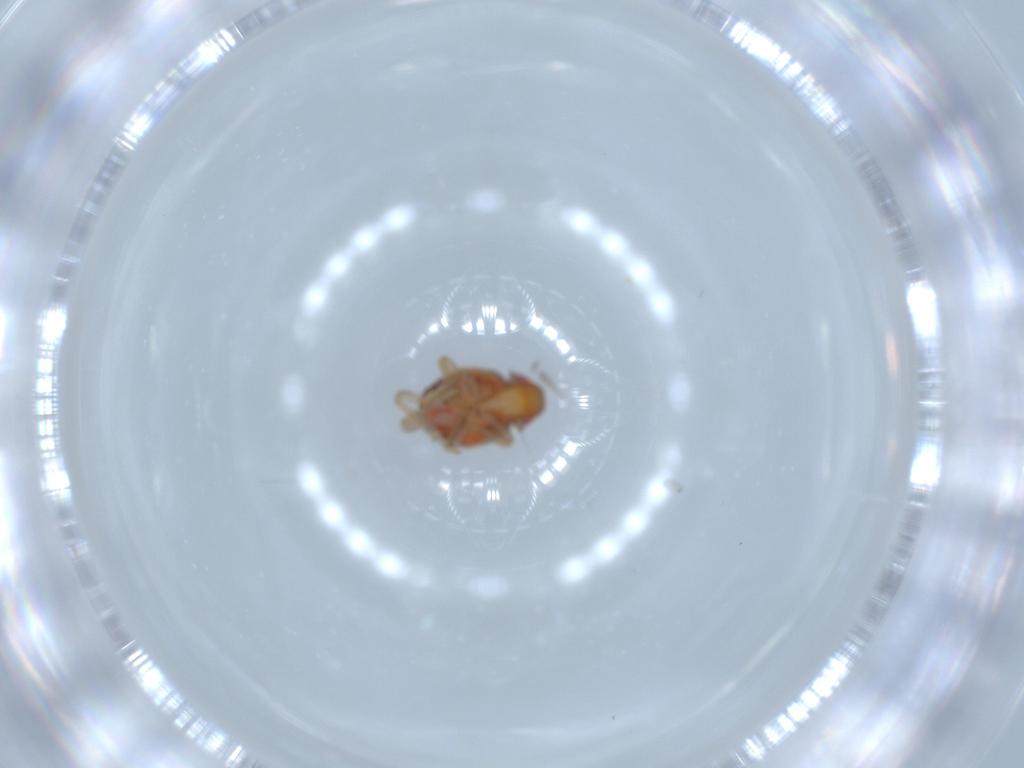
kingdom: Animalia
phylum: Arthropoda
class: Insecta
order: Hemiptera
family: Issidae
